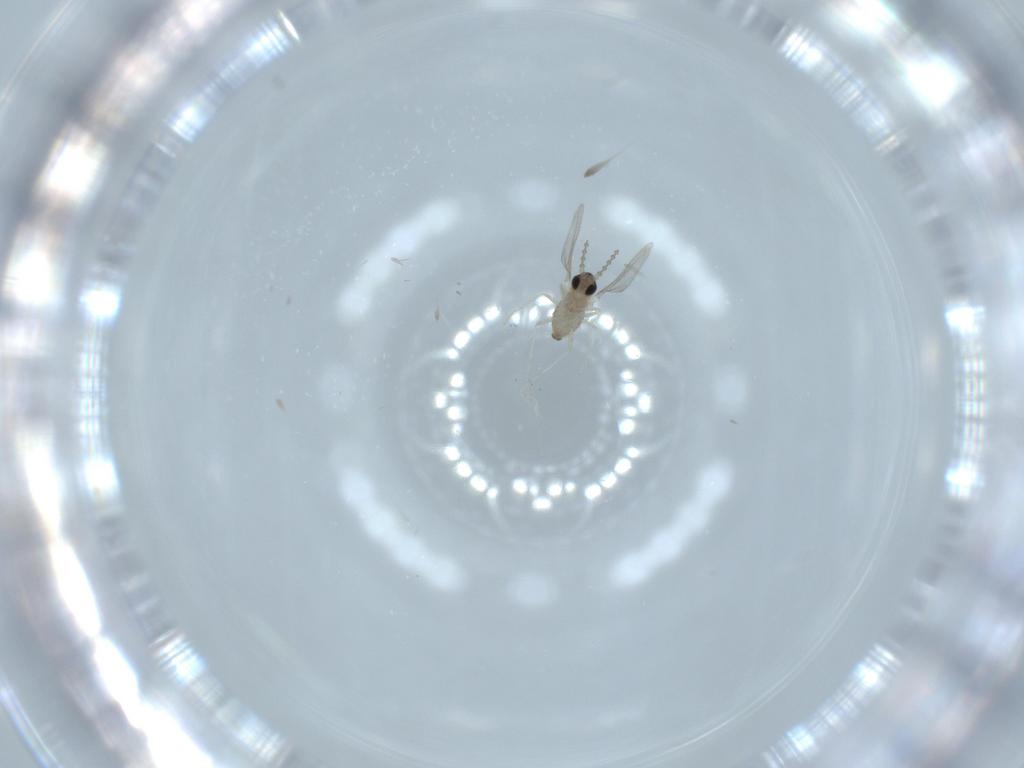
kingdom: Animalia
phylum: Arthropoda
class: Insecta
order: Diptera
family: Cecidomyiidae
